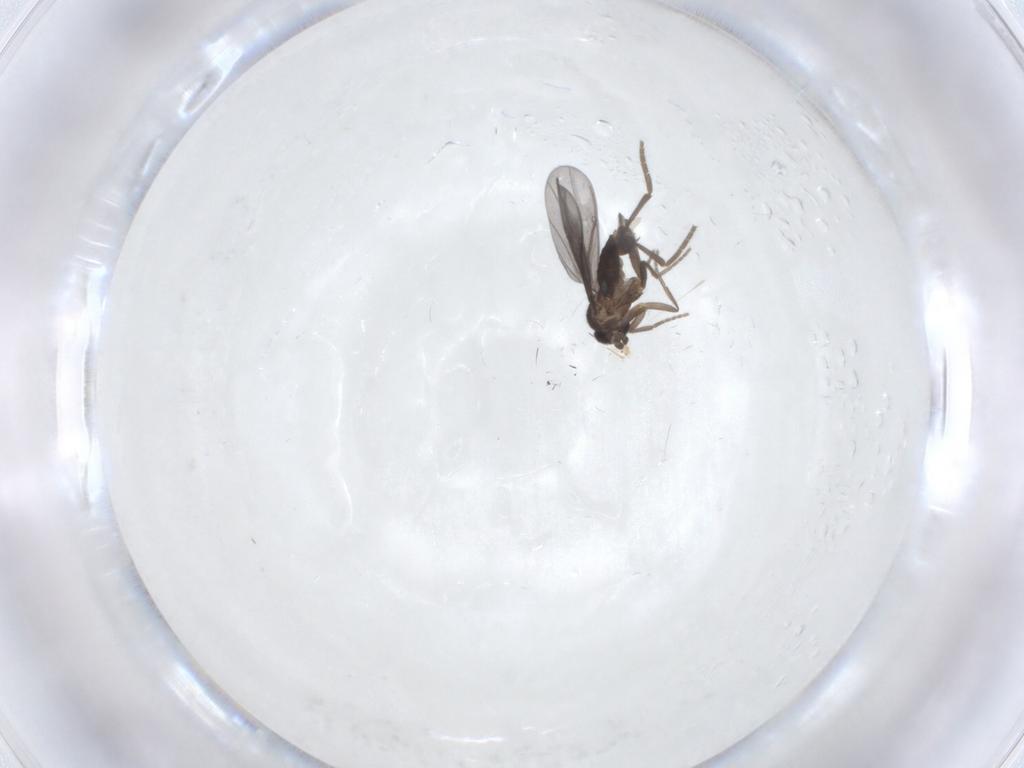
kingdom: Animalia
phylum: Arthropoda
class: Insecta
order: Diptera
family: Phoridae
